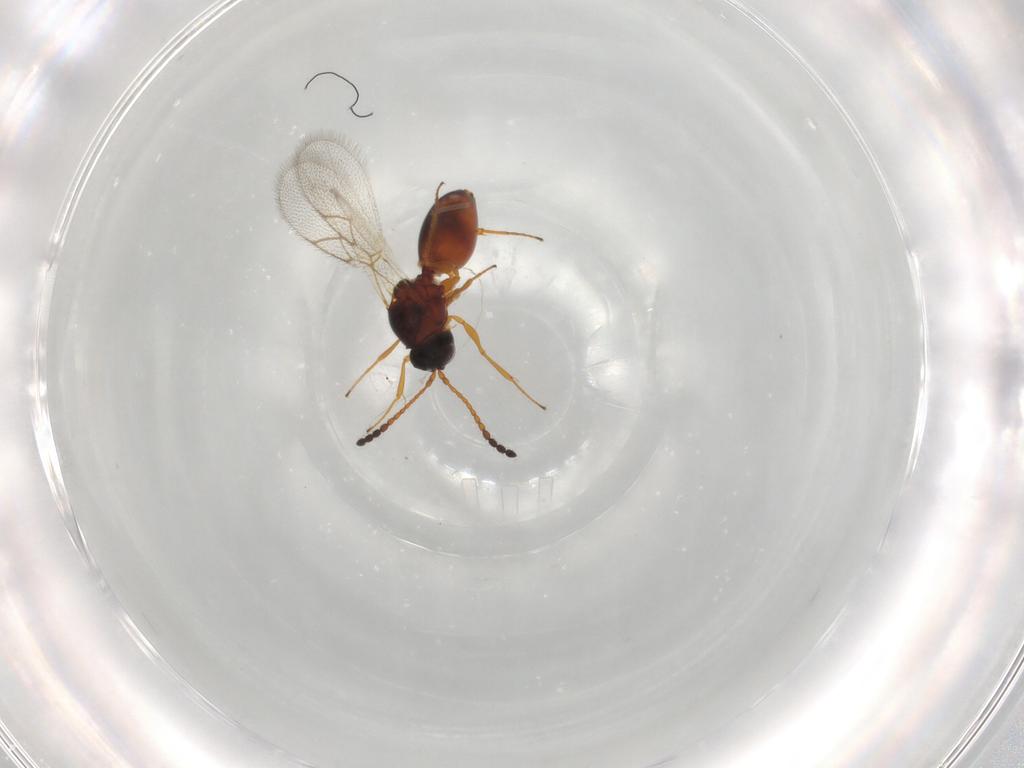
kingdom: Animalia
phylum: Arthropoda
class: Insecta
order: Hymenoptera
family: Figitidae
